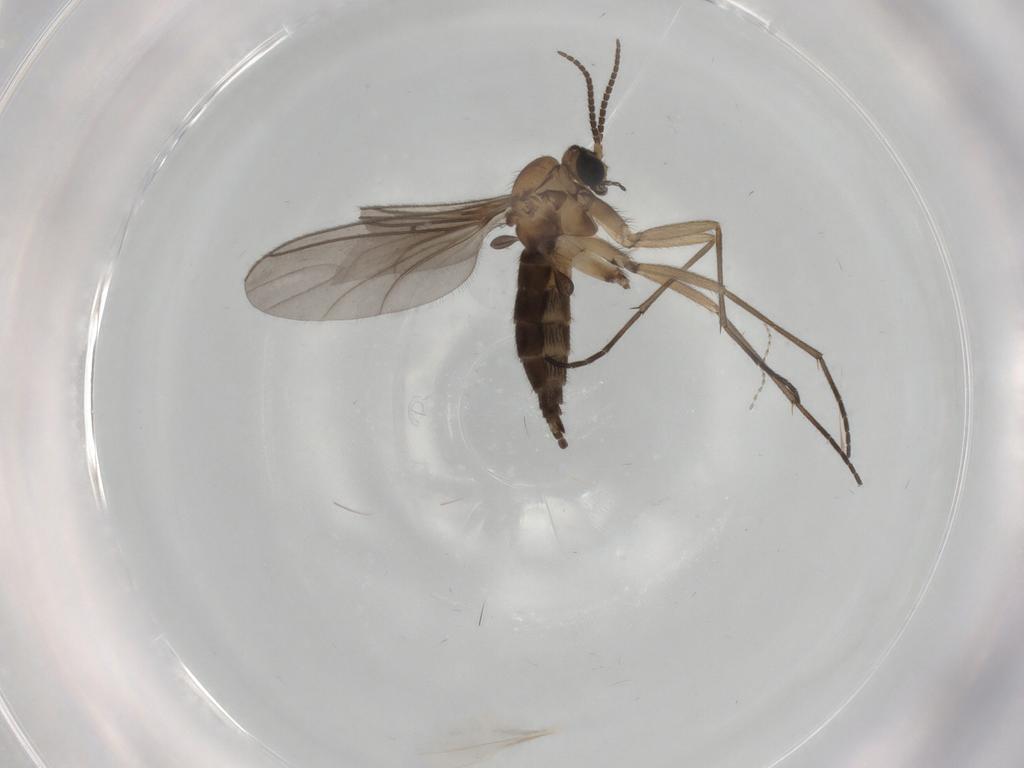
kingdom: Animalia
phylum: Arthropoda
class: Insecta
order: Diptera
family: Sciaridae
